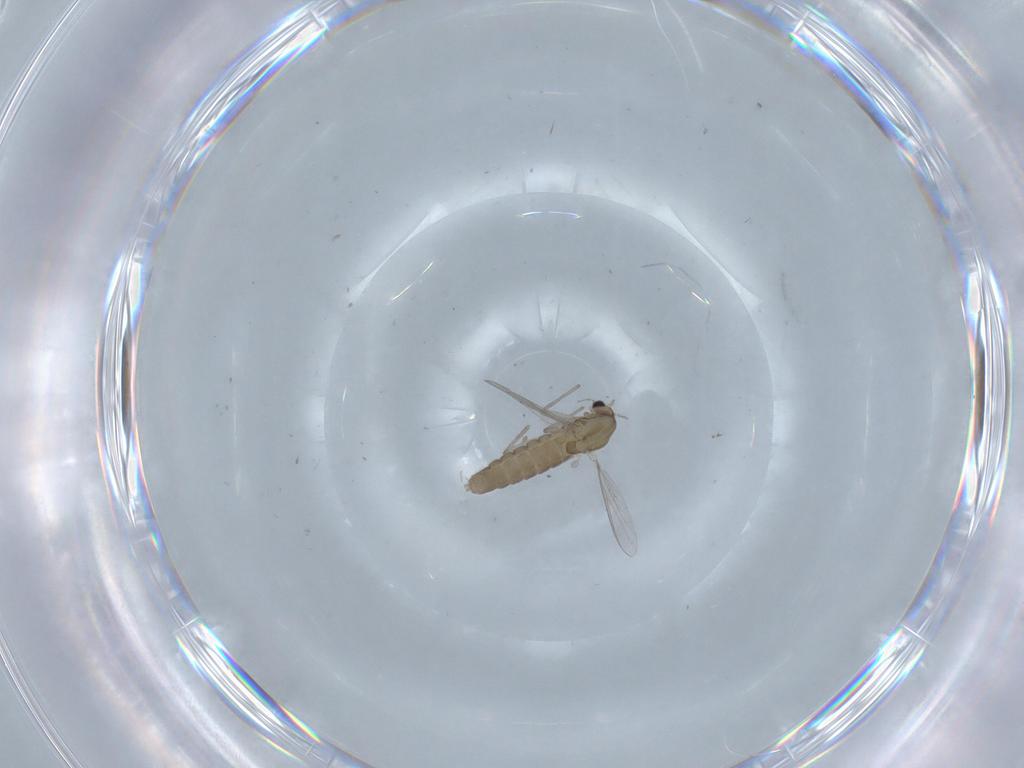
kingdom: Animalia
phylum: Arthropoda
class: Insecta
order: Diptera
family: Chironomidae
